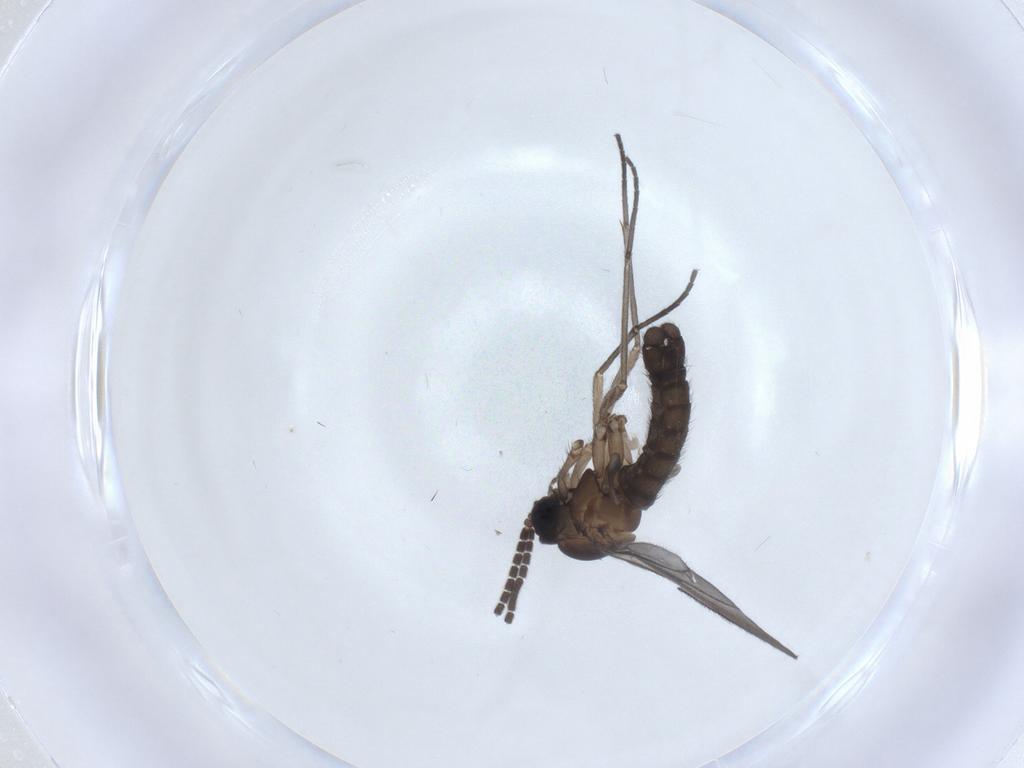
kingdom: Animalia
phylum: Arthropoda
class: Insecta
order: Diptera
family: Sciaridae
